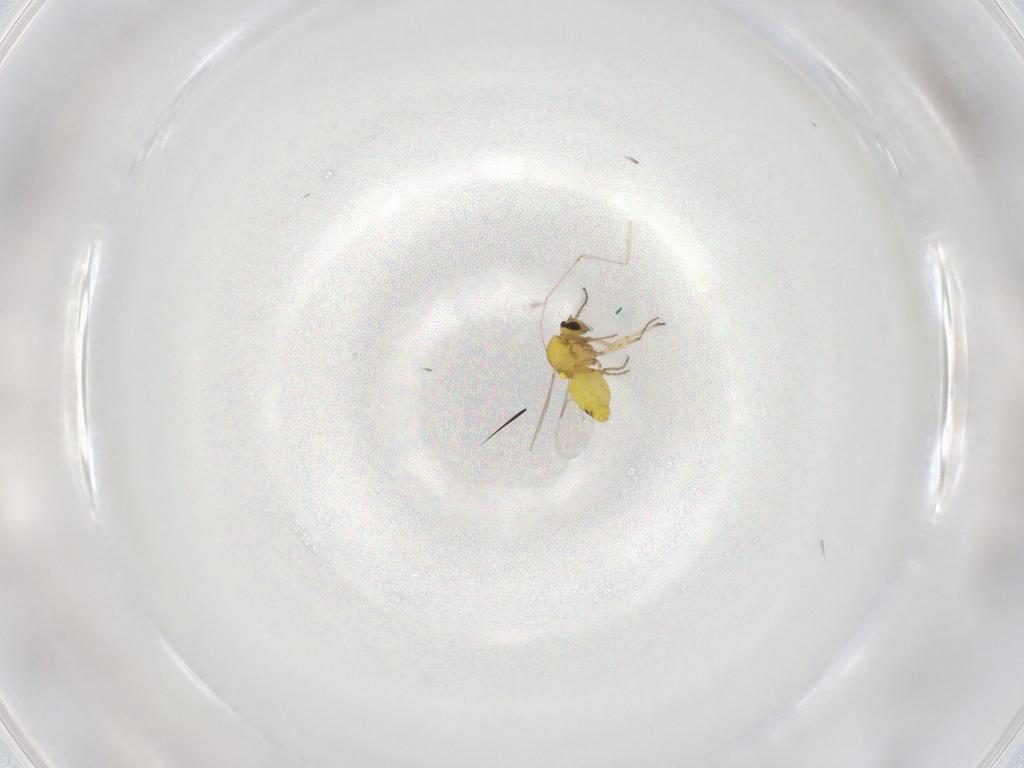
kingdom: Animalia
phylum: Arthropoda
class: Insecta
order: Diptera
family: Ceratopogonidae
